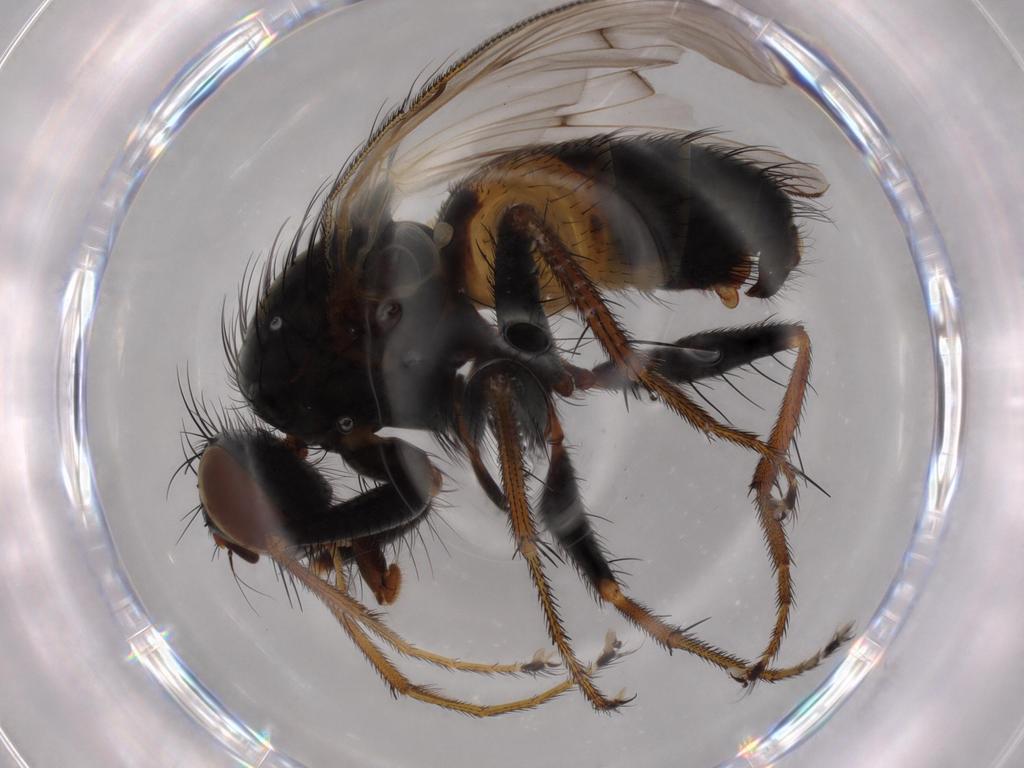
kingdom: Animalia
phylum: Arthropoda
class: Insecta
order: Diptera
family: Muscidae
